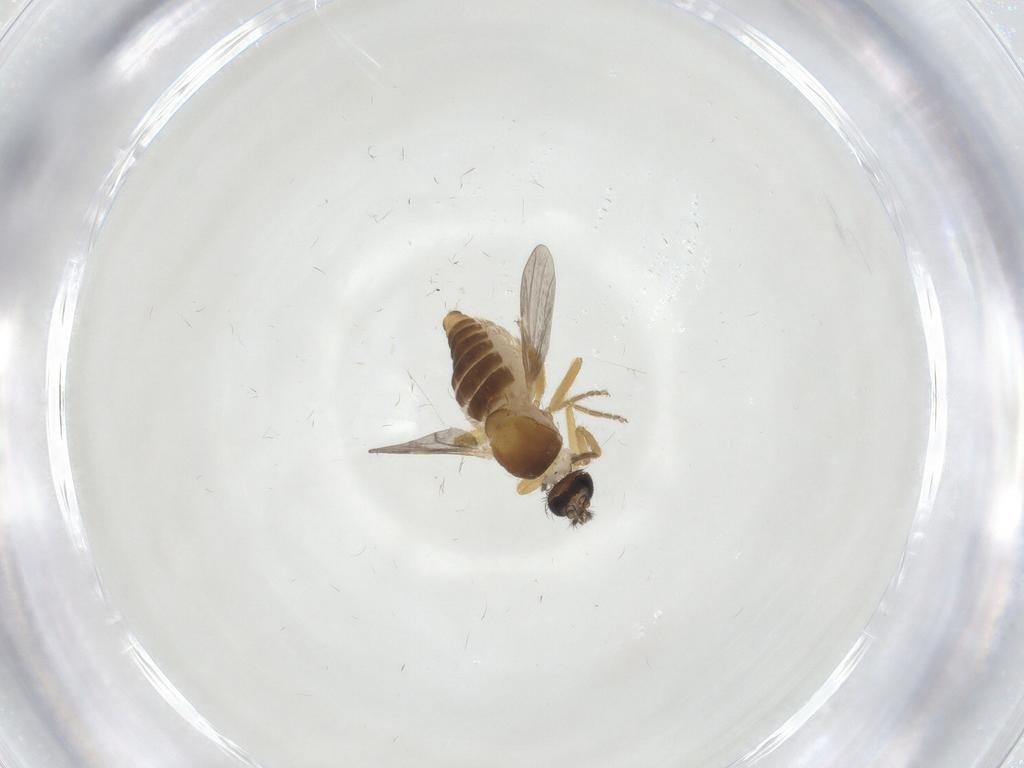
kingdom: Animalia
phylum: Arthropoda
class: Insecta
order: Diptera
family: Ceratopogonidae
